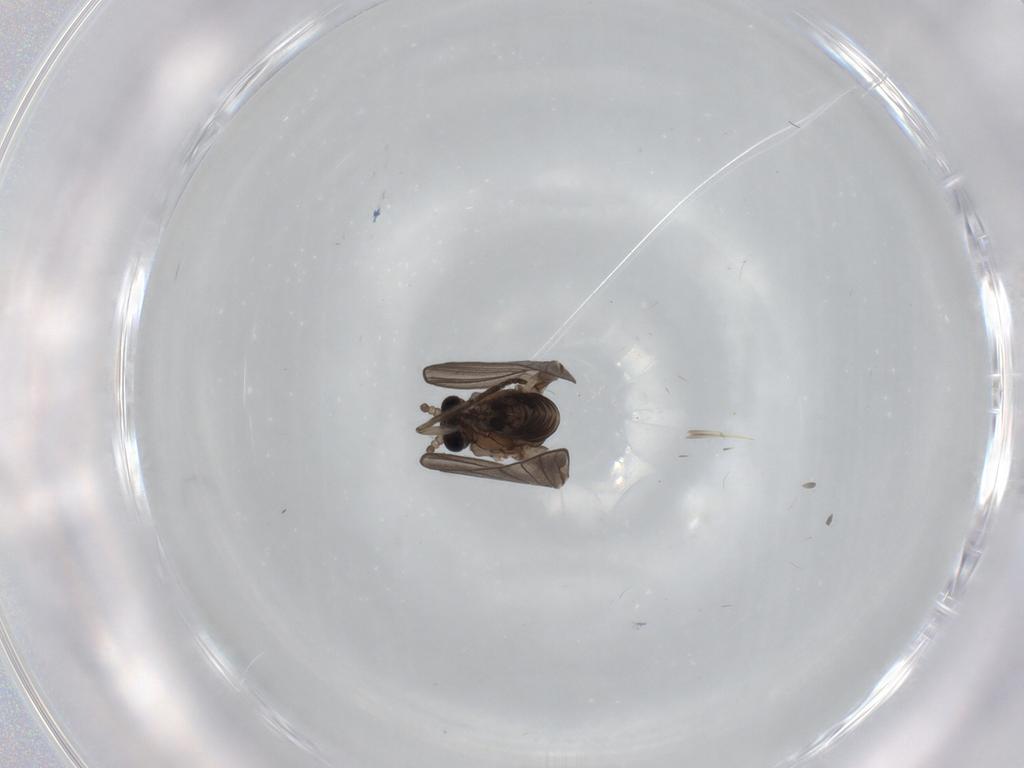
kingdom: Animalia
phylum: Arthropoda
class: Insecta
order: Diptera
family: Psychodidae
